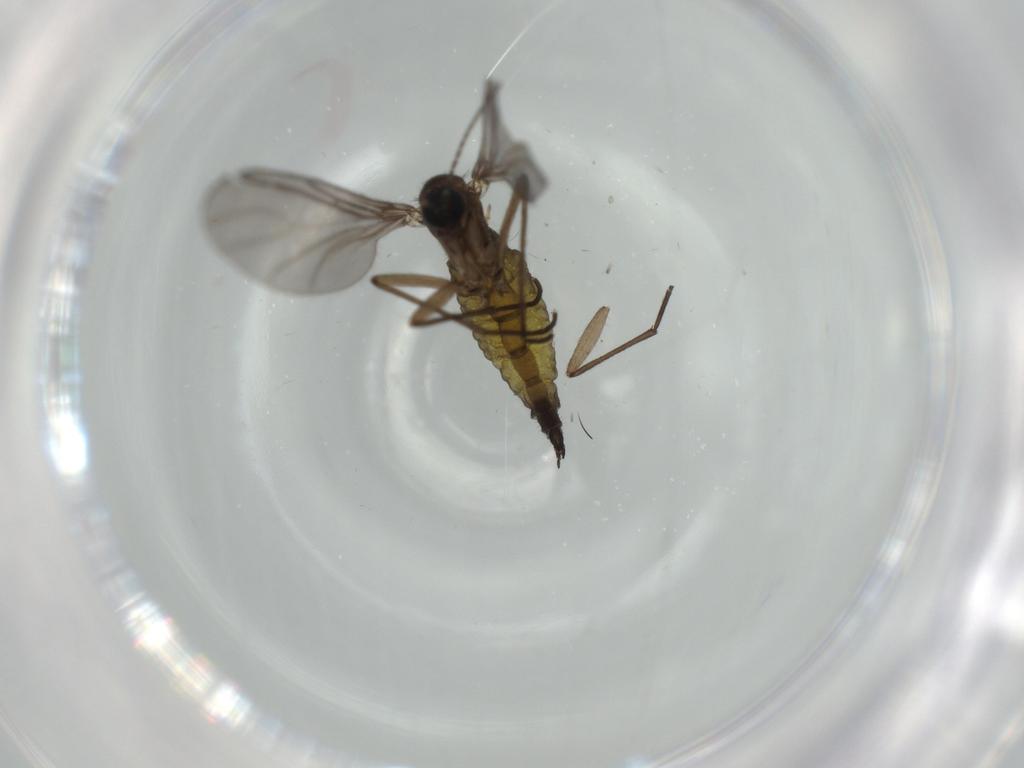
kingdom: Animalia
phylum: Arthropoda
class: Insecta
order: Diptera
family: Sciaridae
